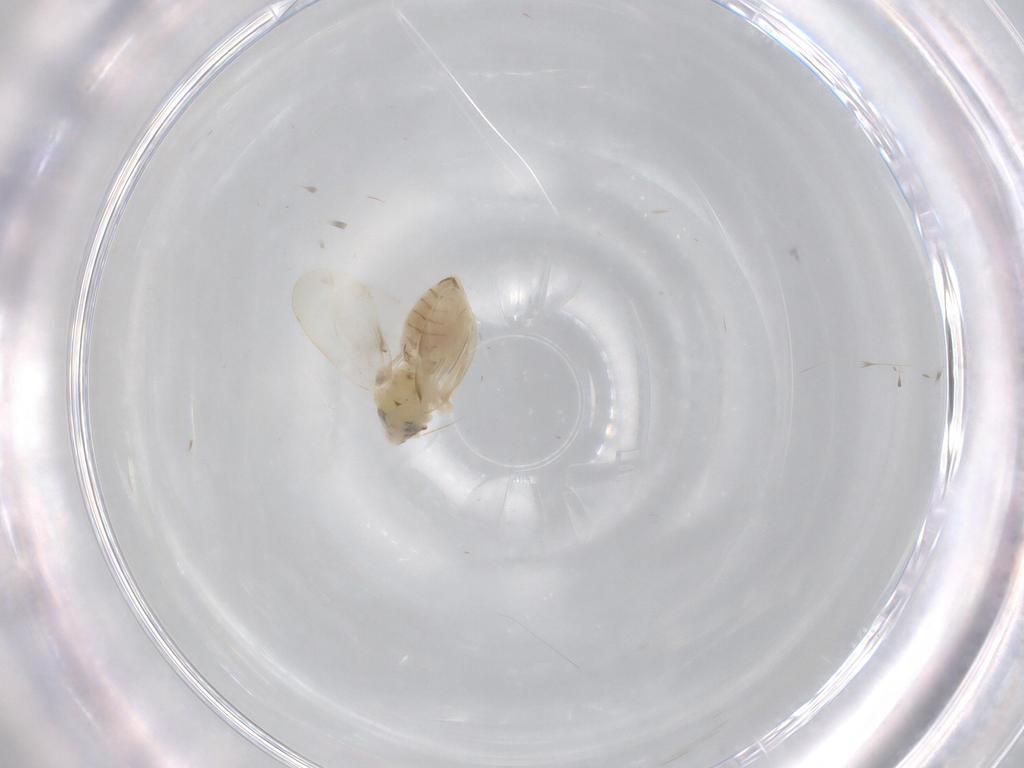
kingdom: Animalia
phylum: Arthropoda
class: Insecta
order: Hemiptera
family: Aleyrodidae
